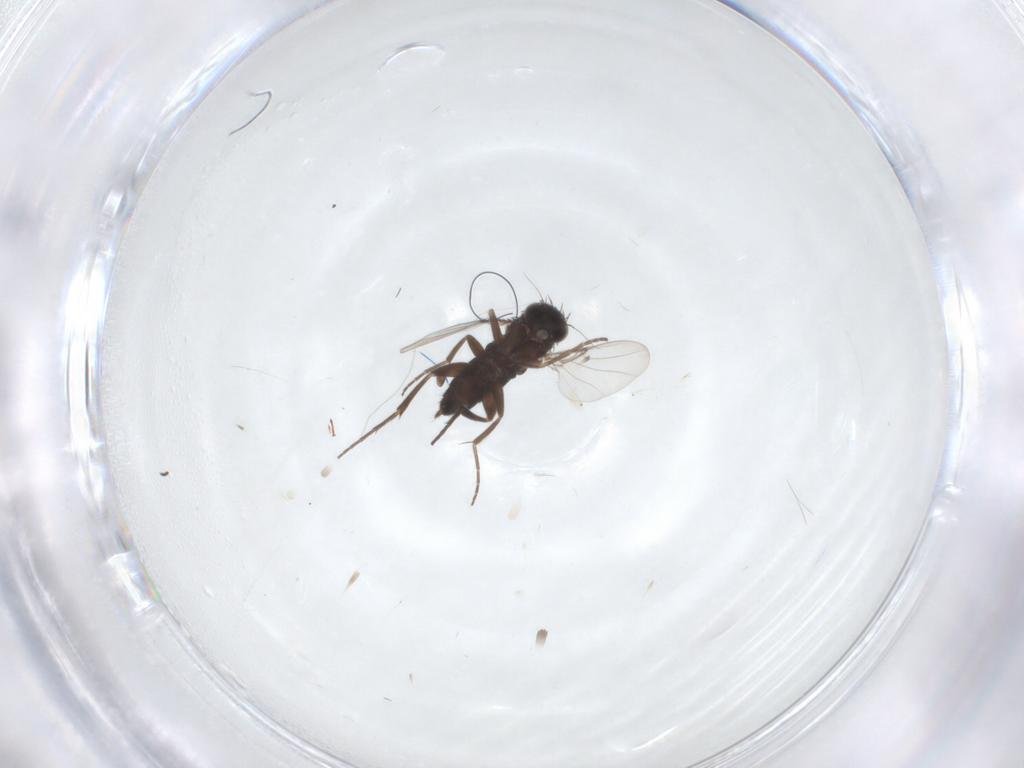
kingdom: Animalia
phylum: Arthropoda
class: Insecta
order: Diptera
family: Phoridae
